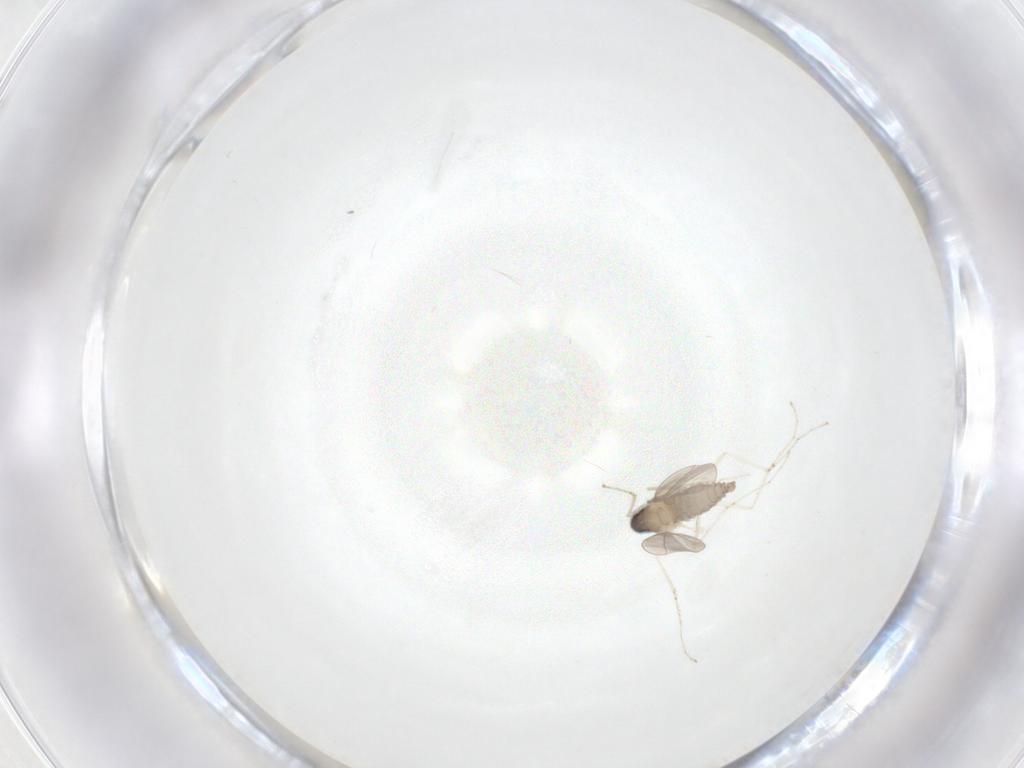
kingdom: Animalia
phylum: Arthropoda
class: Insecta
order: Diptera
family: Cecidomyiidae
